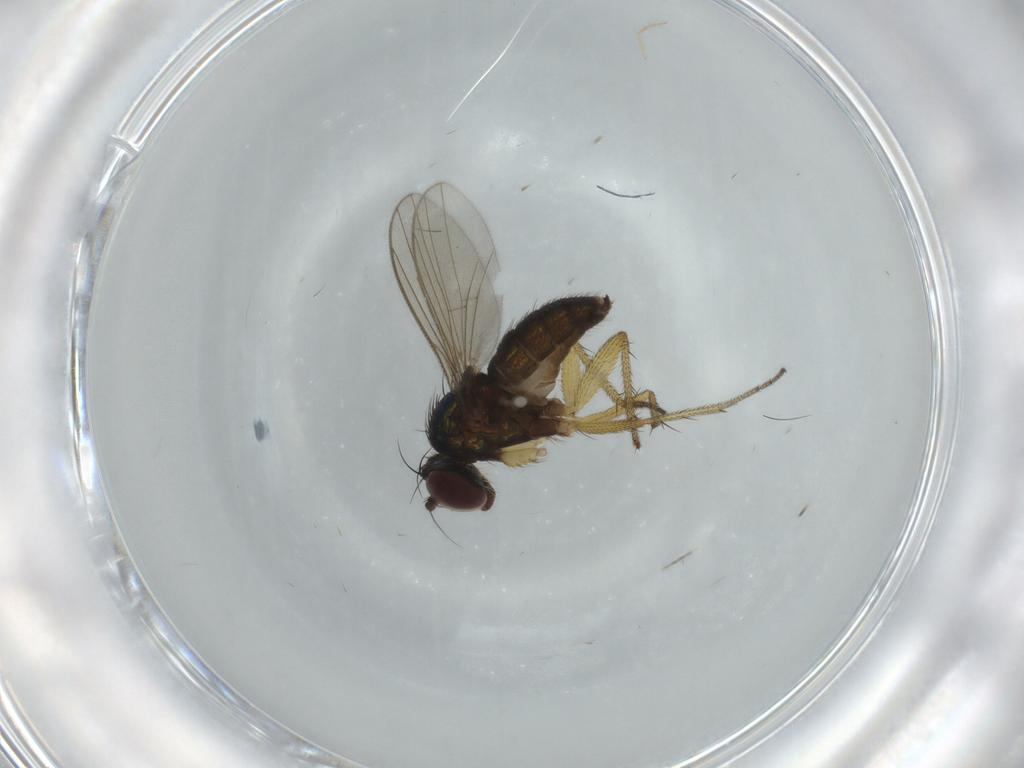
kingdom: Animalia
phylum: Arthropoda
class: Insecta
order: Diptera
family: Dolichopodidae
